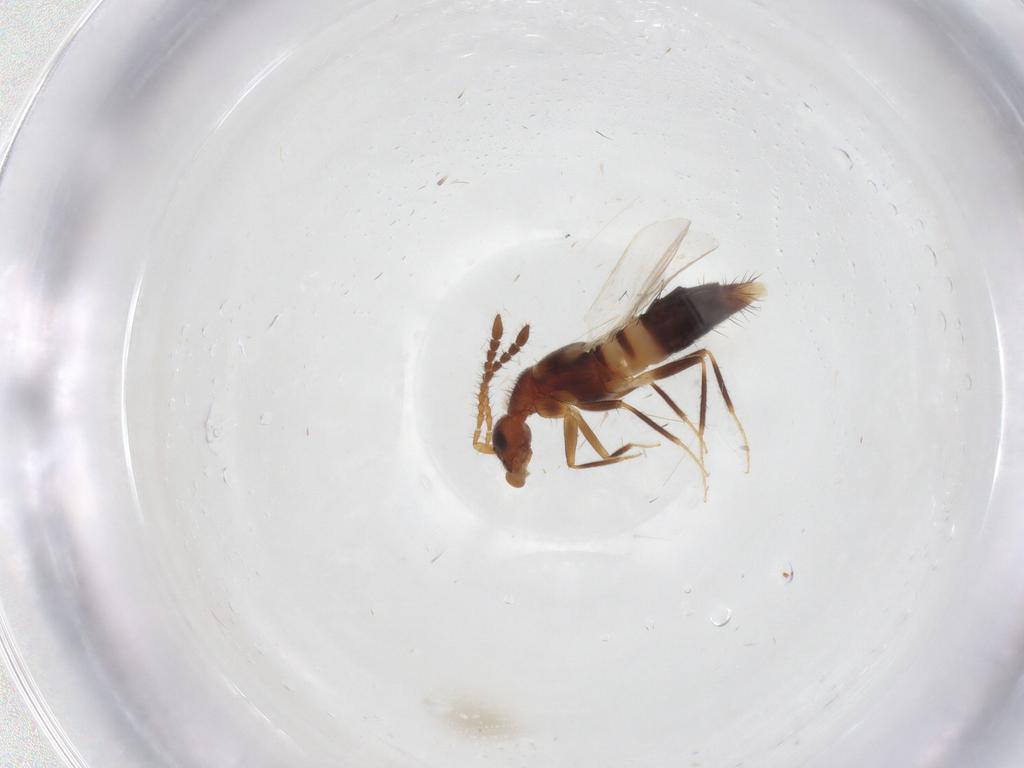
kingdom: Animalia
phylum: Arthropoda
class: Insecta
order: Coleoptera
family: Staphylinidae
